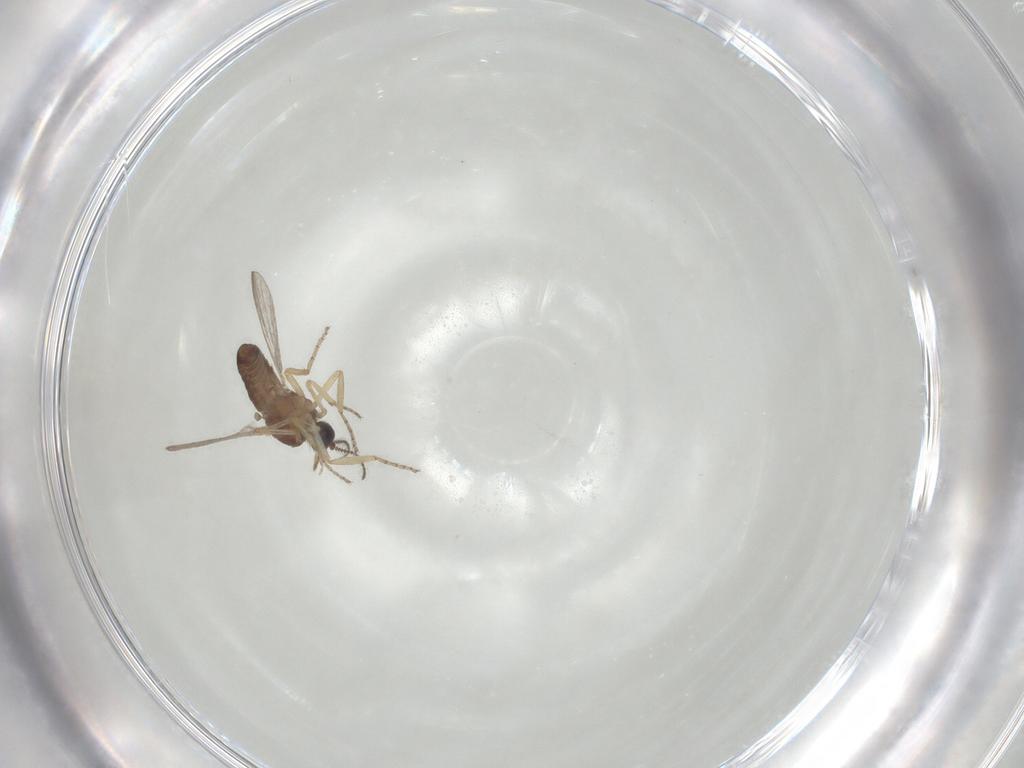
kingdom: Animalia
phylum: Arthropoda
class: Insecta
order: Diptera
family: Ceratopogonidae
